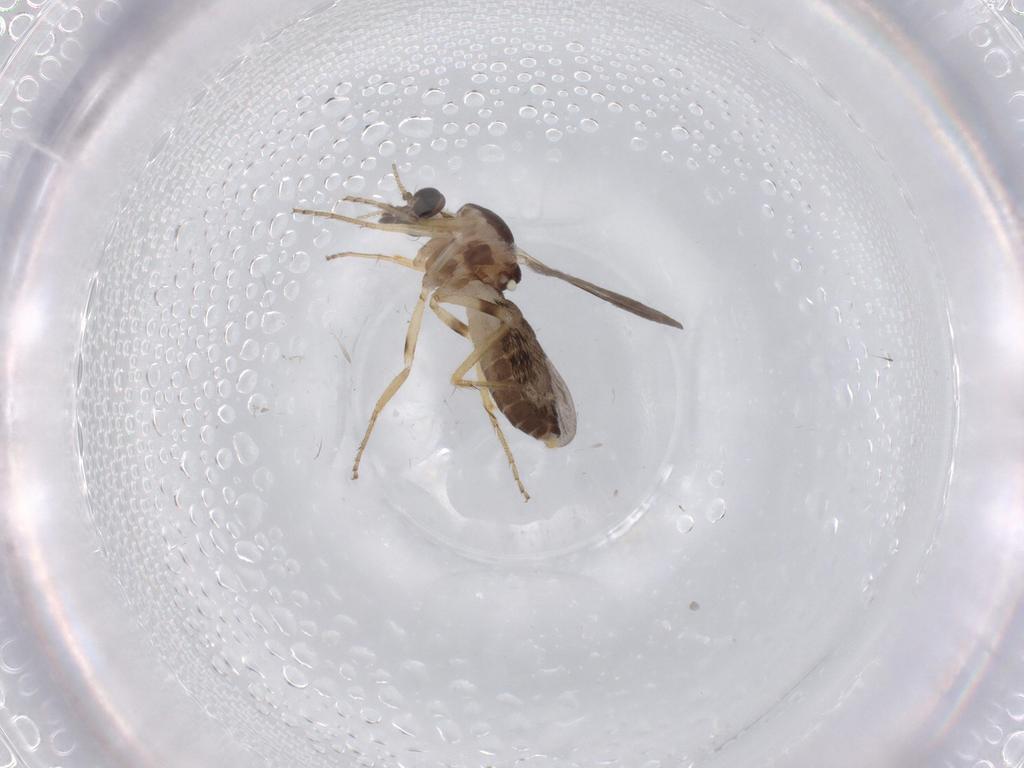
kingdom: Animalia
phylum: Arthropoda
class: Insecta
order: Diptera
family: Ceratopogonidae
